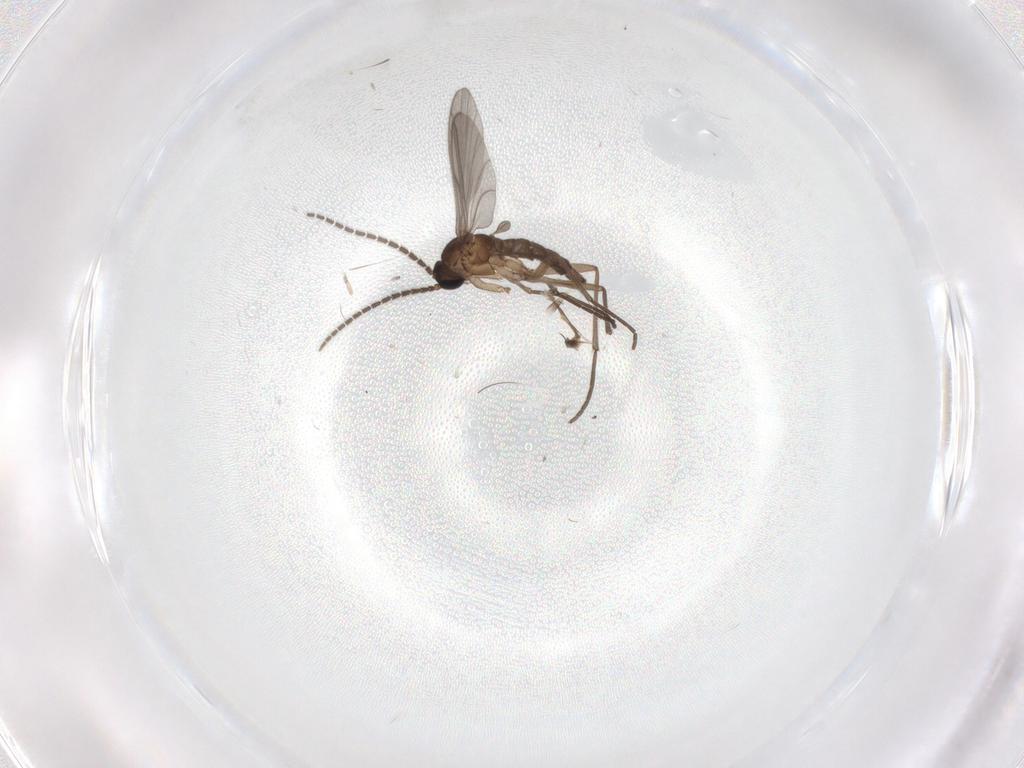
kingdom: Animalia
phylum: Arthropoda
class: Insecta
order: Diptera
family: Sciaridae
